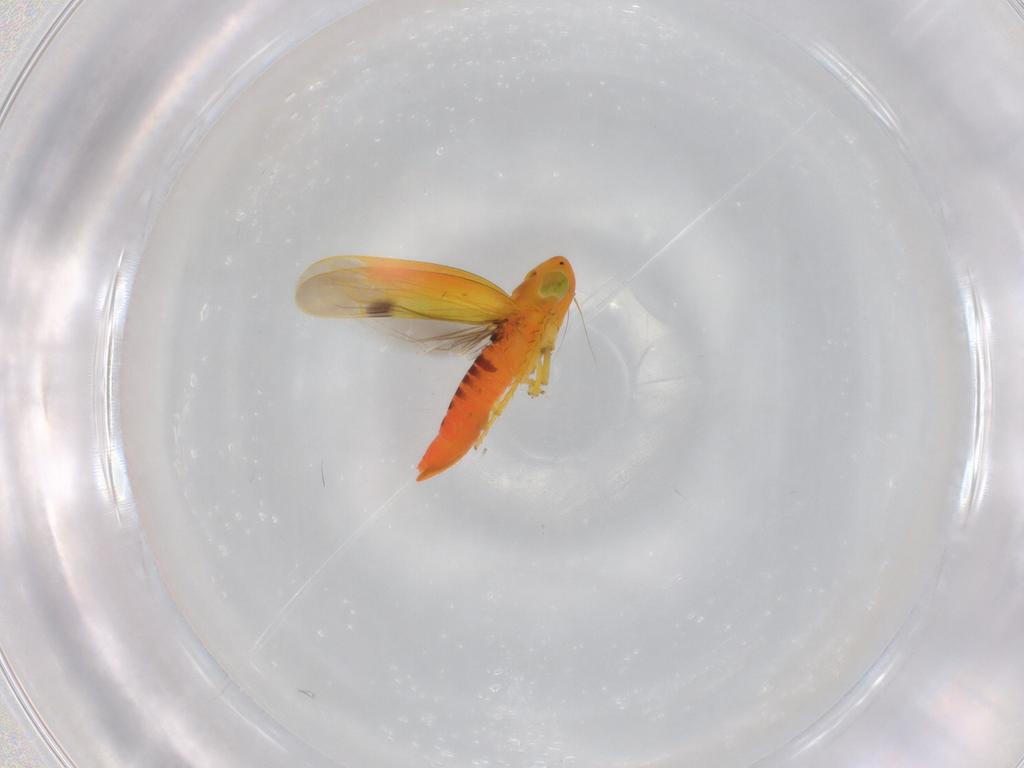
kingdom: Animalia
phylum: Arthropoda
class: Insecta
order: Hemiptera
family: Cicadellidae
